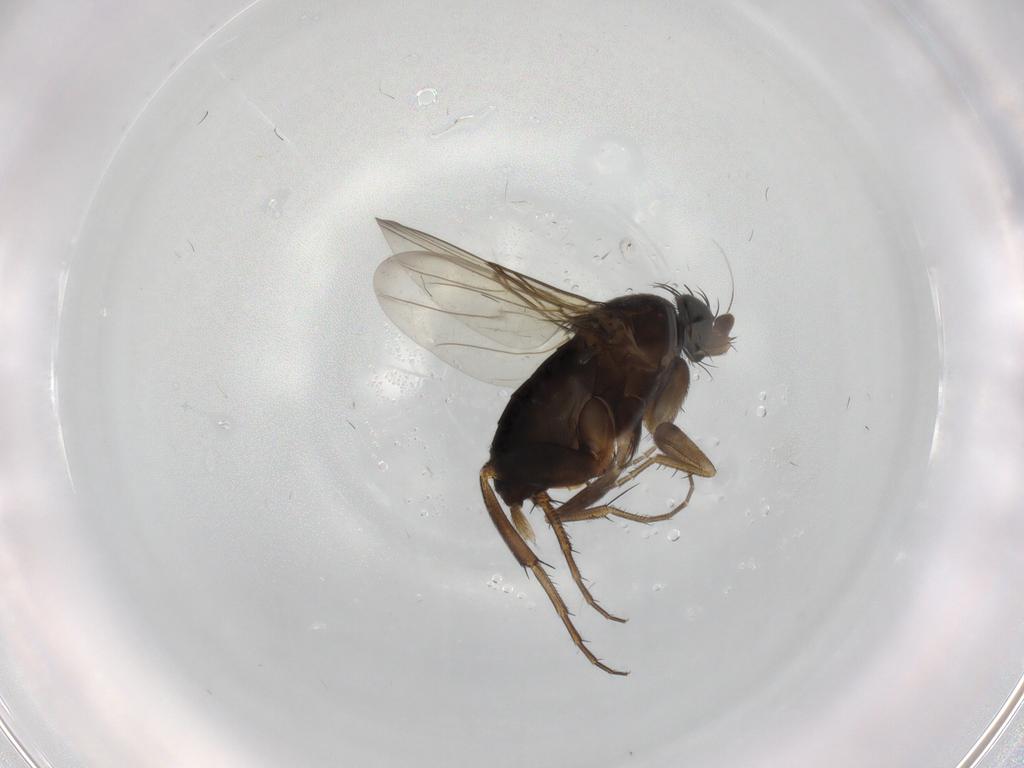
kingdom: Animalia
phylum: Arthropoda
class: Insecta
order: Diptera
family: Phoridae
